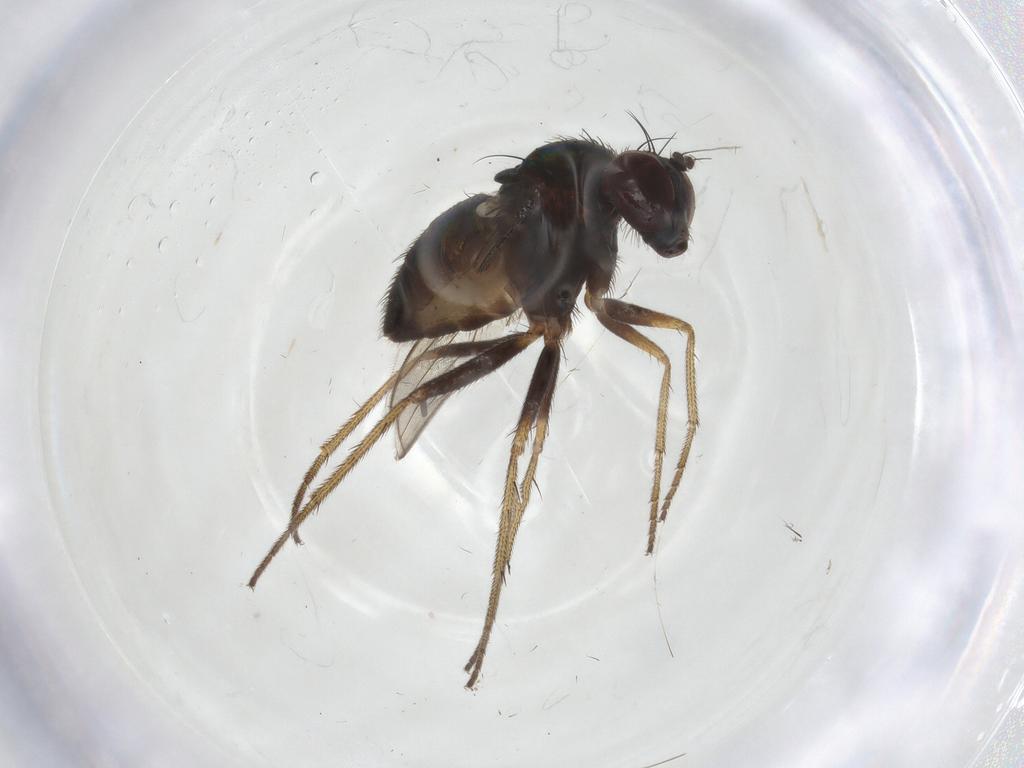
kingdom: Animalia
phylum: Arthropoda
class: Insecta
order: Diptera
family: Dolichopodidae
